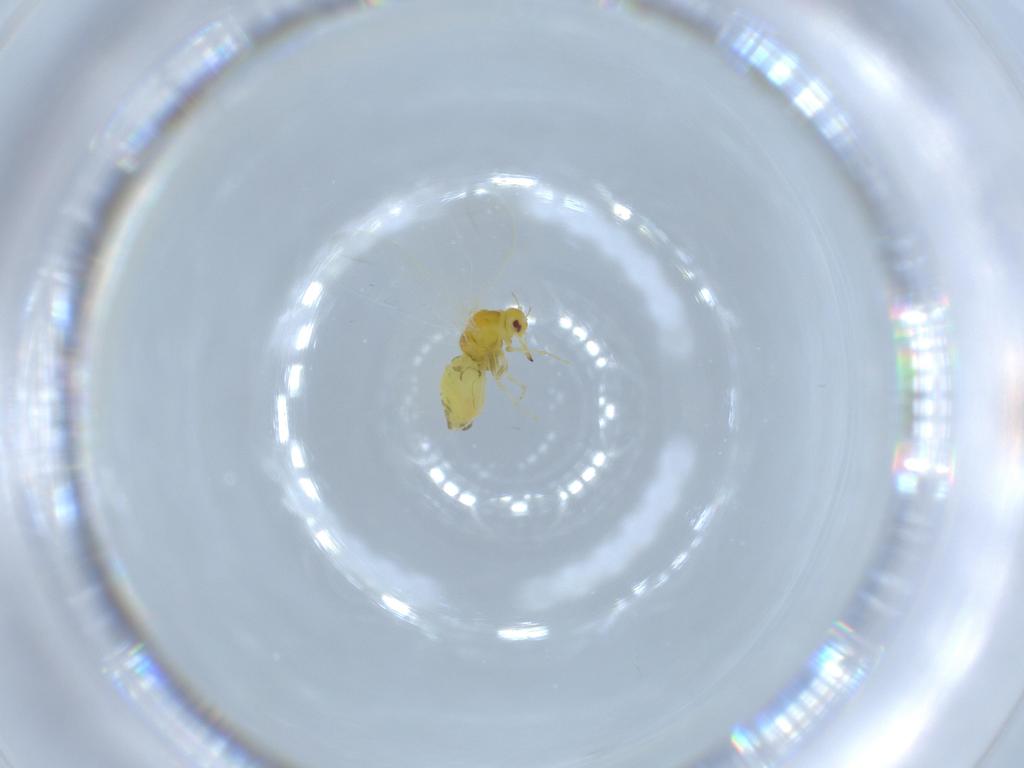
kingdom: Animalia
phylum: Arthropoda
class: Insecta
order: Hemiptera
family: Aleyrodidae
